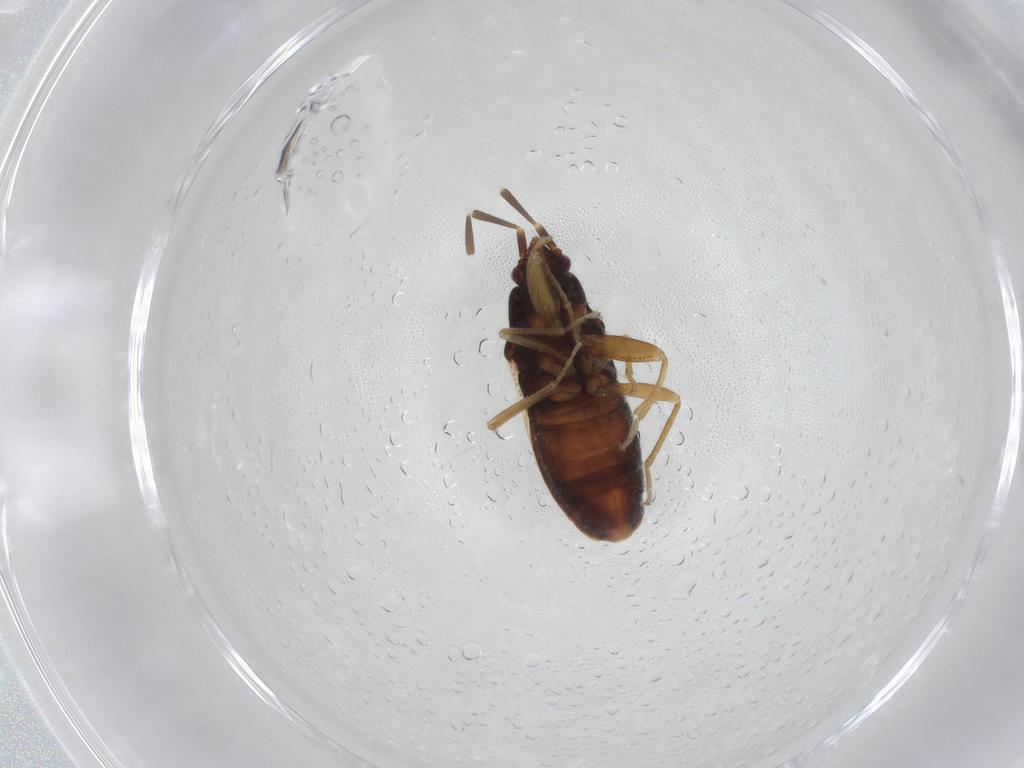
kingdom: Animalia
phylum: Arthropoda
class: Insecta
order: Hemiptera
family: Rhyparochromidae
